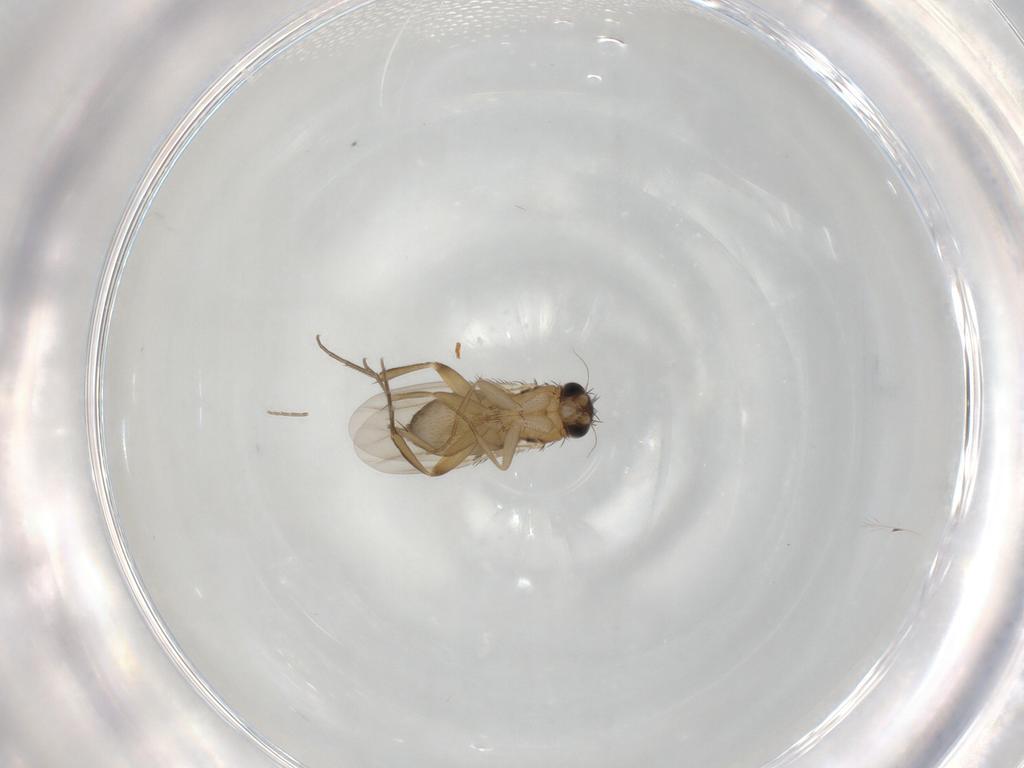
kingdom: Animalia
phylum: Arthropoda
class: Insecta
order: Diptera
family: Phoridae
